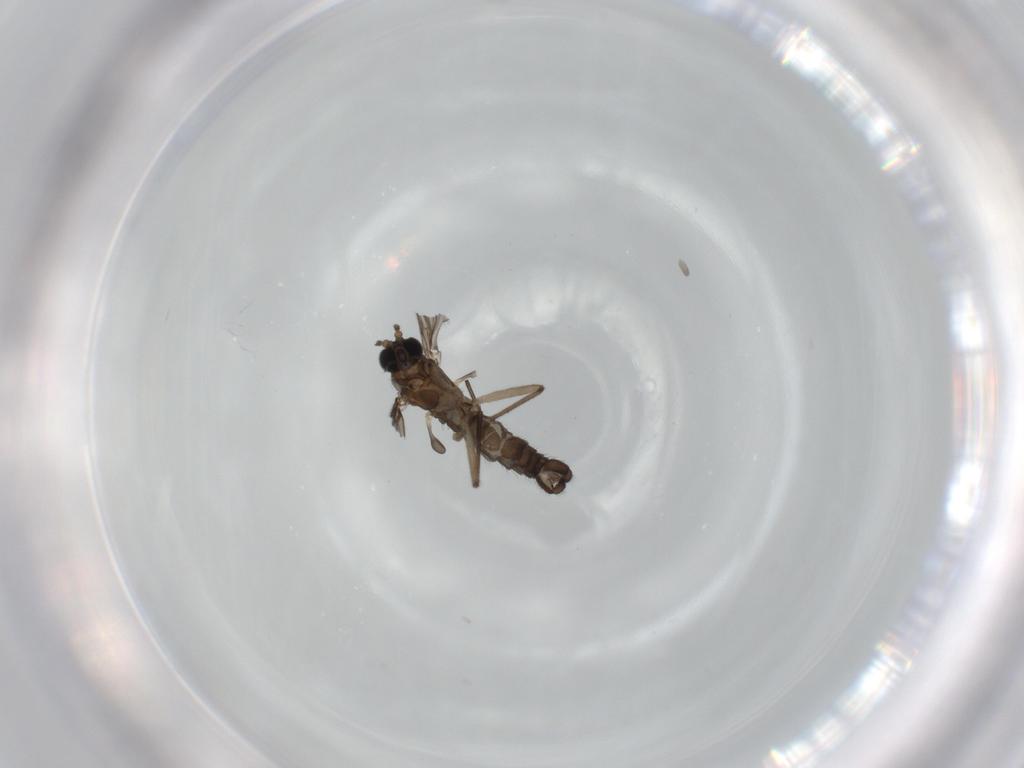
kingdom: Animalia
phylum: Arthropoda
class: Insecta
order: Diptera
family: Sciaridae
